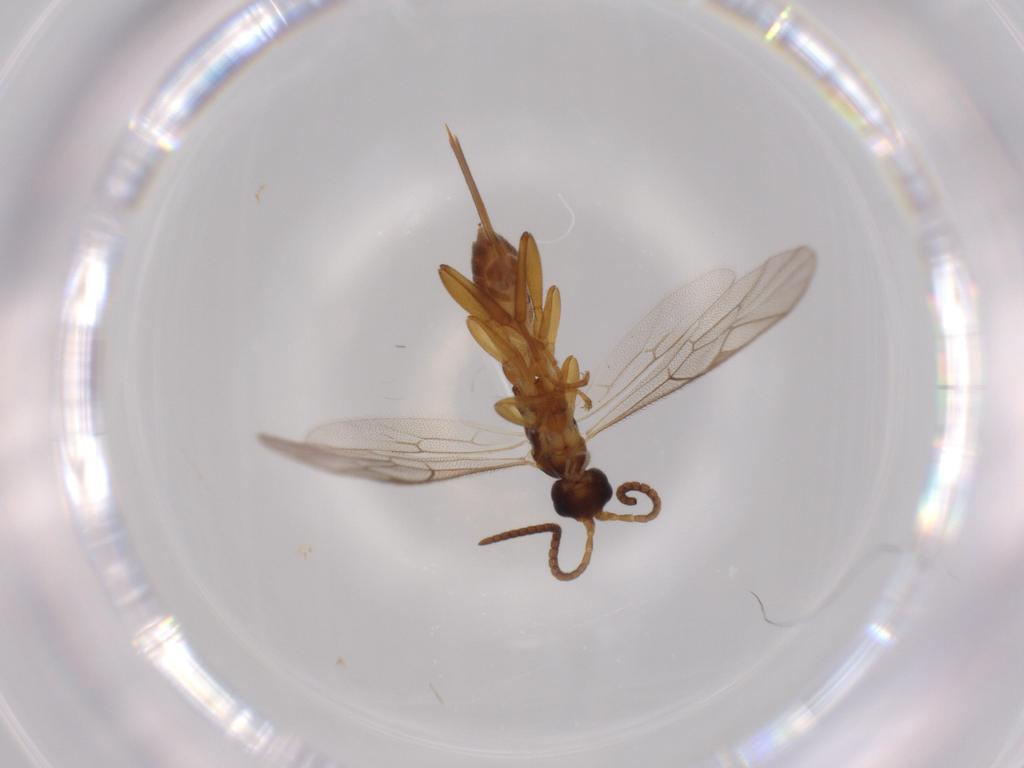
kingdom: Animalia
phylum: Arthropoda
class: Insecta
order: Hymenoptera
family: Ichneumonidae
